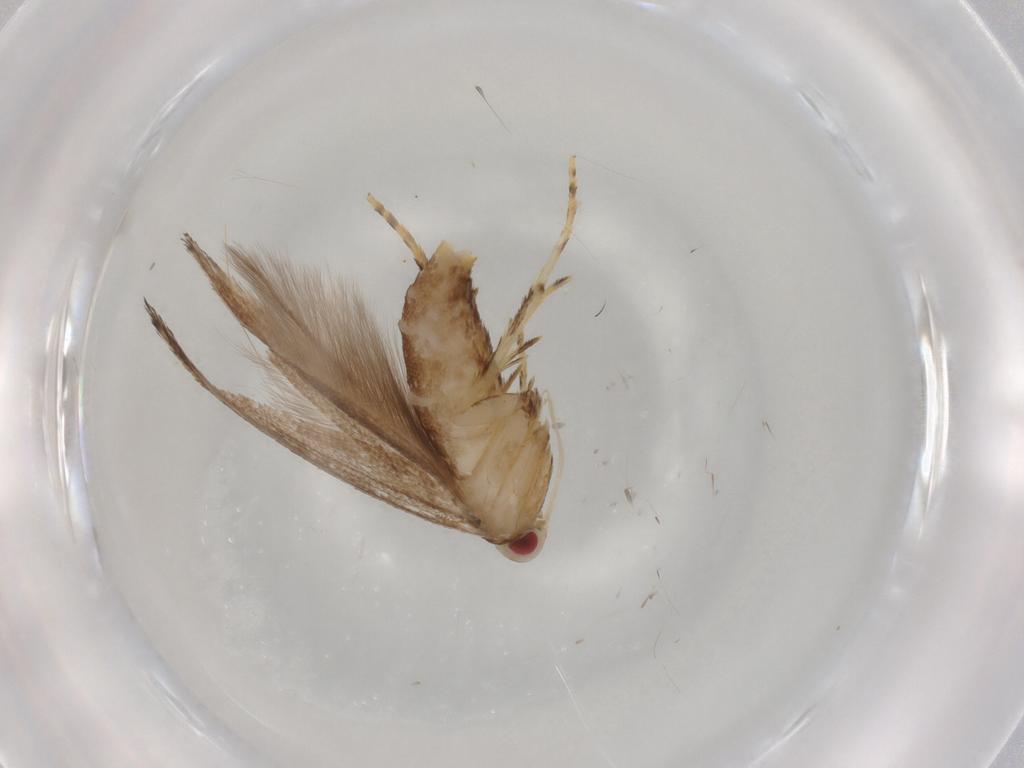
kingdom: Animalia
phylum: Arthropoda
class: Insecta
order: Lepidoptera
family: Cosmopterigidae
